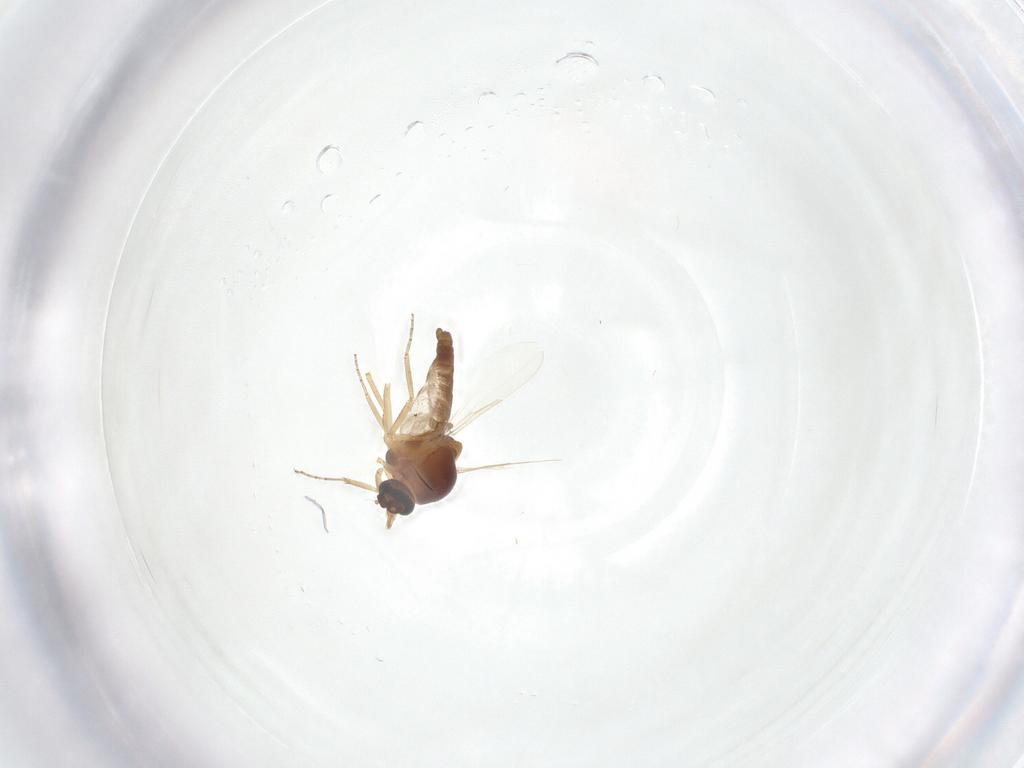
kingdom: Animalia
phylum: Arthropoda
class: Insecta
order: Diptera
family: Ceratopogonidae
